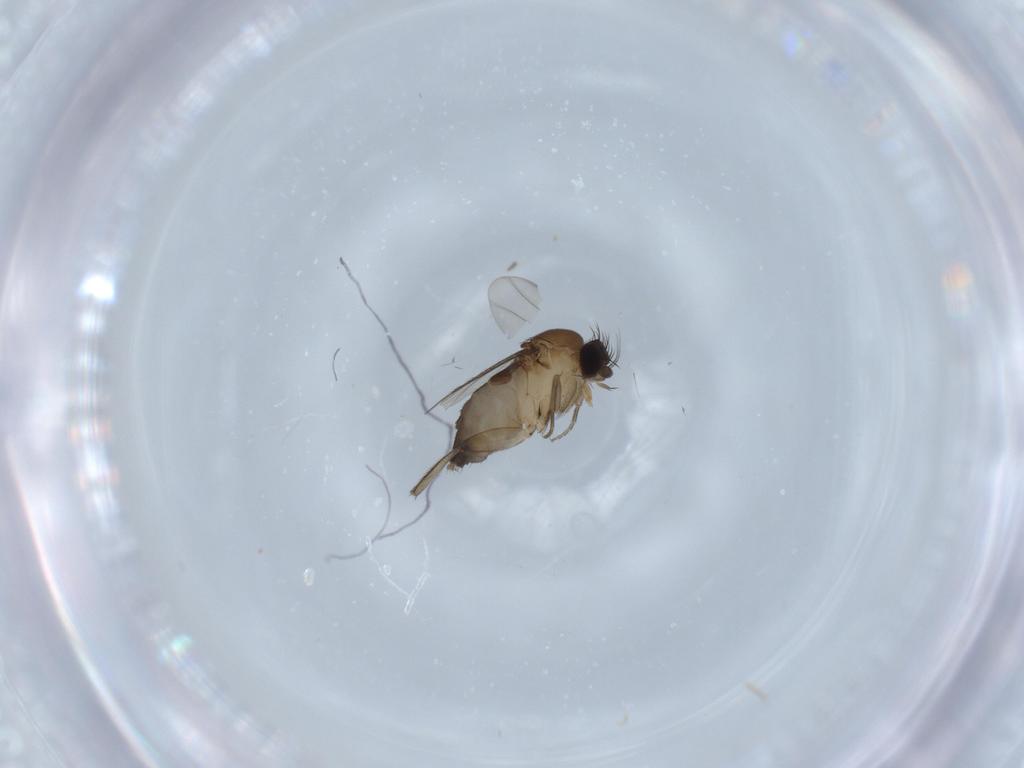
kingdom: Animalia
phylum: Arthropoda
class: Insecta
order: Diptera
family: Phoridae
